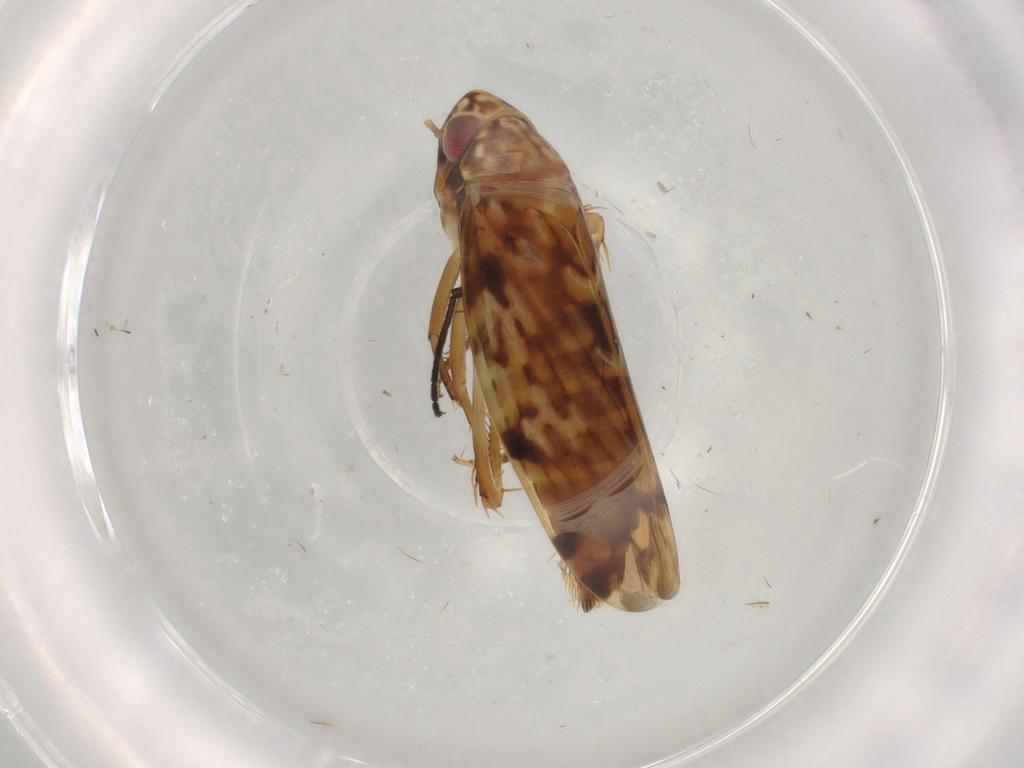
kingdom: Animalia
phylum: Arthropoda
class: Insecta
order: Hemiptera
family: Cicadellidae
